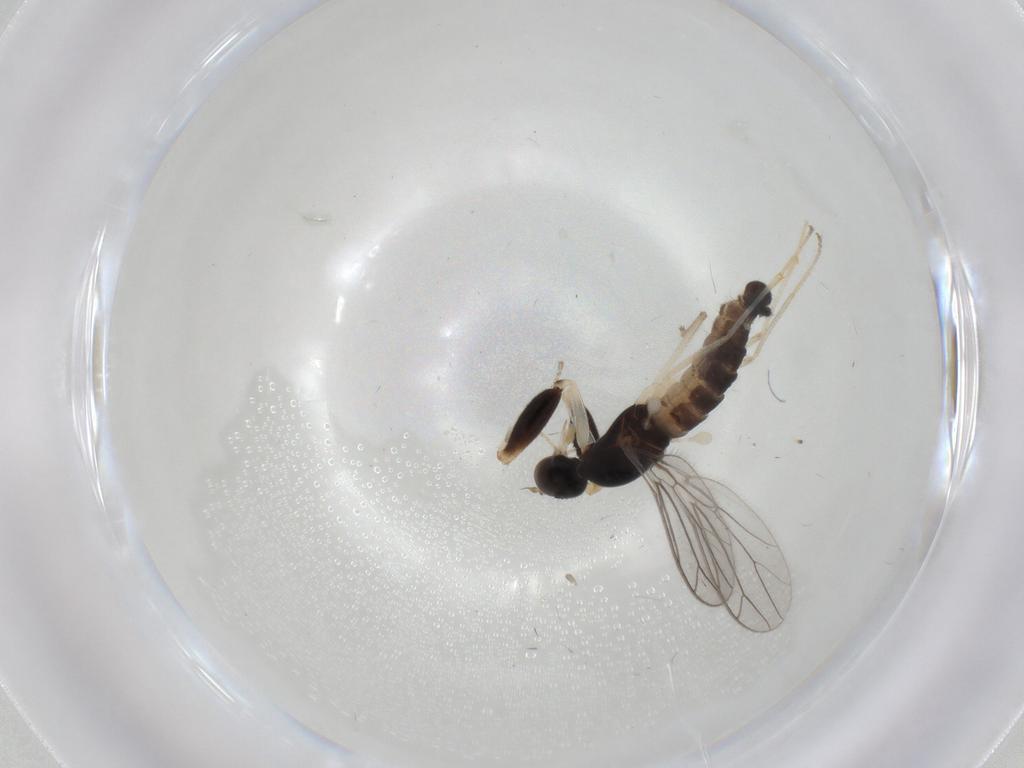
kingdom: Animalia
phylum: Arthropoda
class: Insecta
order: Diptera
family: Empididae
